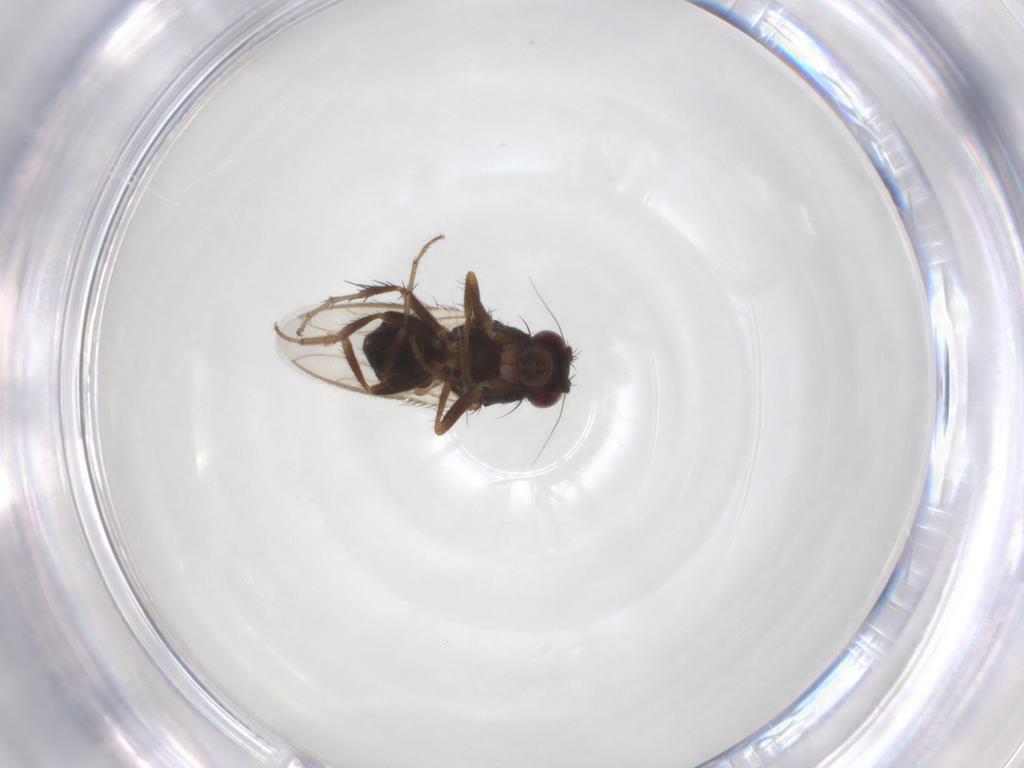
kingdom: Animalia
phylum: Arthropoda
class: Insecta
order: Diptera
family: Sphaeroceridae
